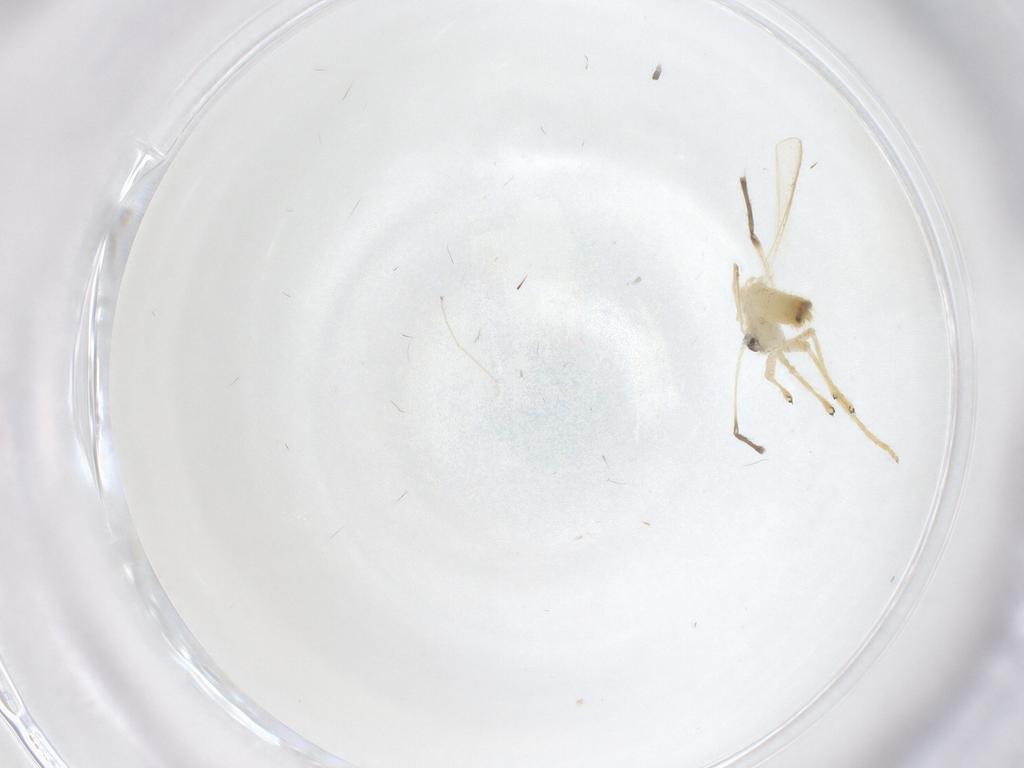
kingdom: Animalia
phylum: Arthropoda
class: Insecta
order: Diptera
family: Chironomidae
